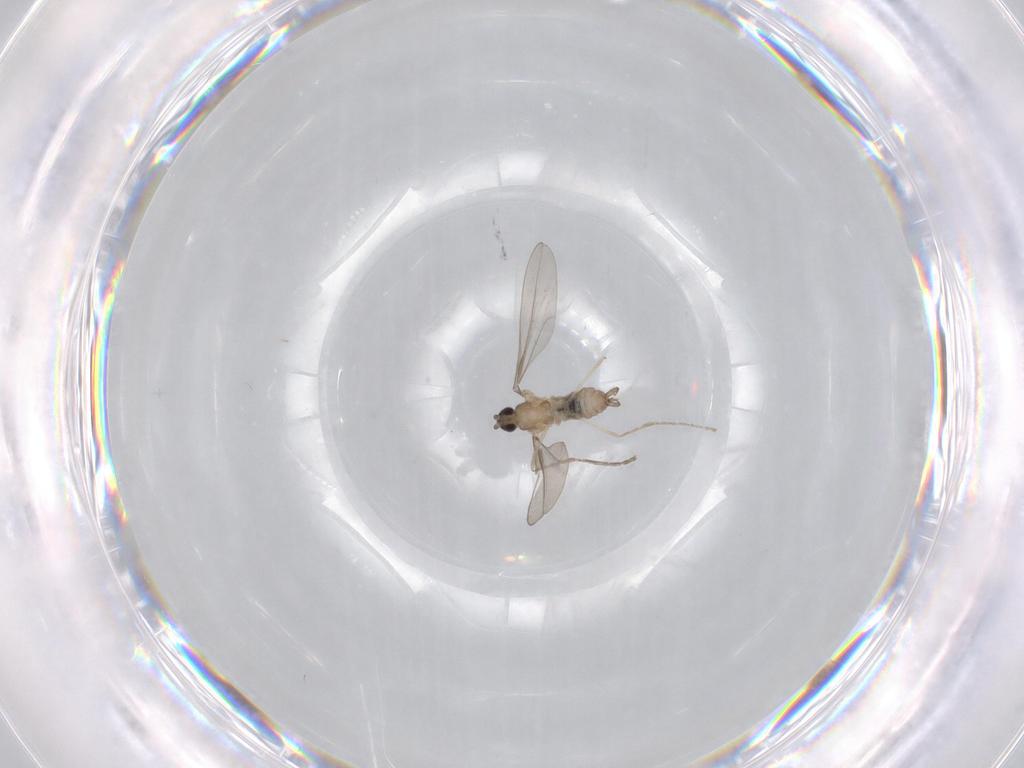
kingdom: Animalia
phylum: Arthropoda
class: Insecta
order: Diptera
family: Cecidomyiidae
